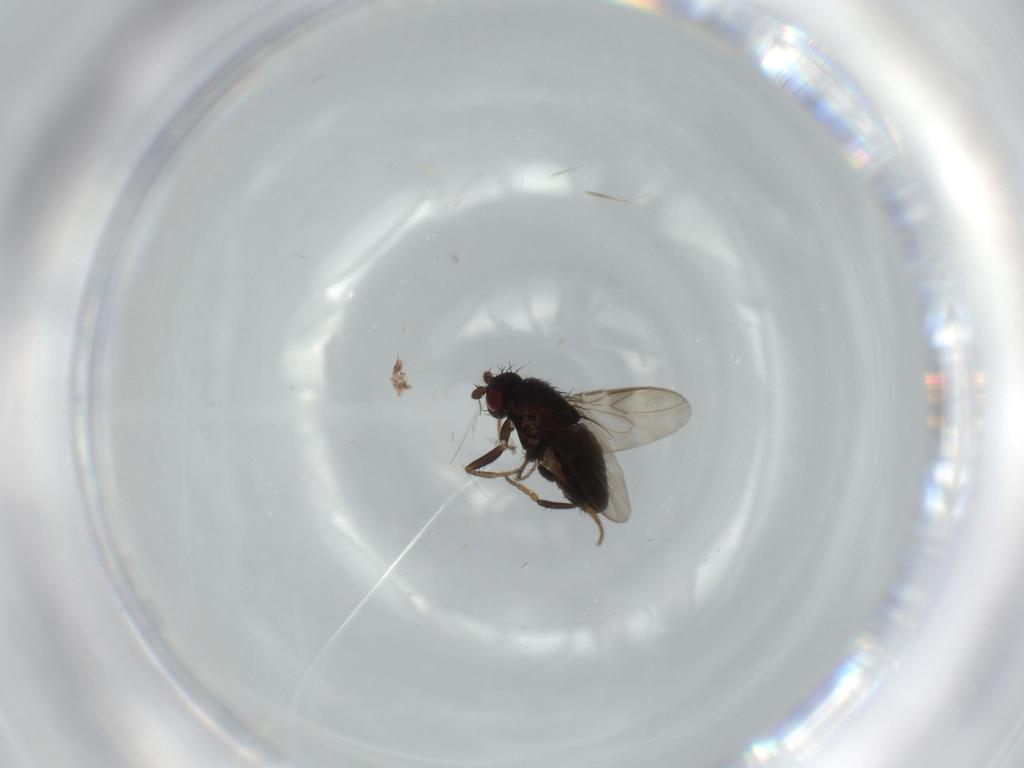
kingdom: Animalia
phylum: Arthropoda
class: Insecta
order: Diptera
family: Sphaeroceridae
